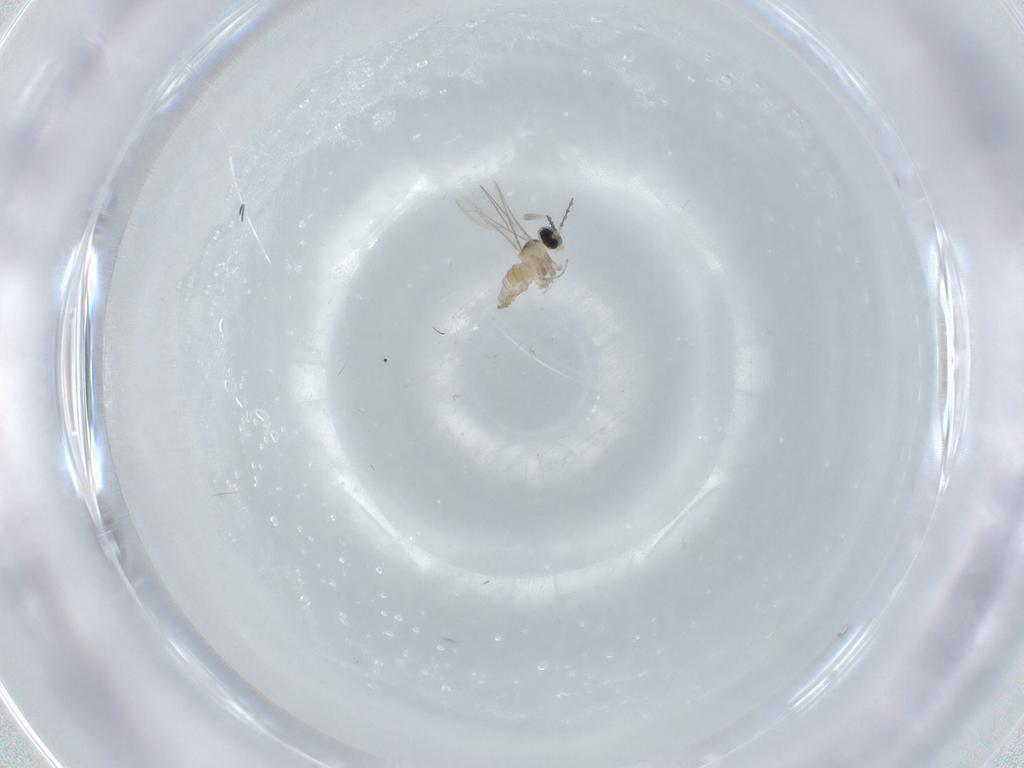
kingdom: Animalia
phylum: Arthropoda
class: Insecta
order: Diptera
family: Cecidomyiidae
